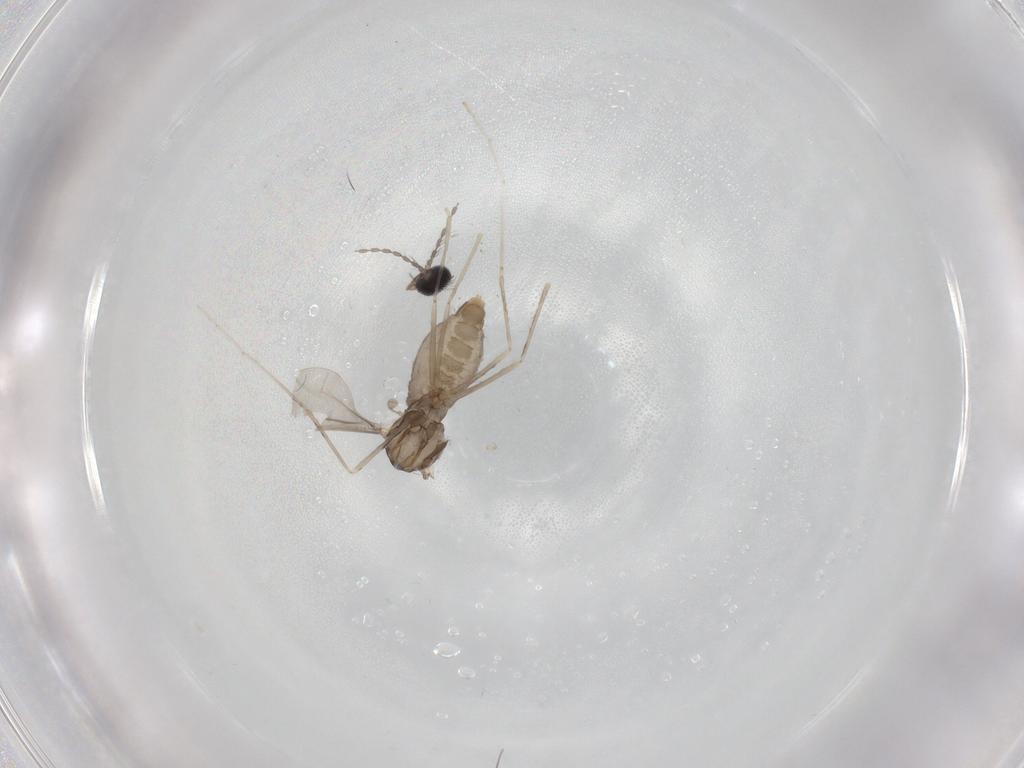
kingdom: Animalia
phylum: Arthropoda
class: Insecta
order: Diptera
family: Cecidomyiidae
